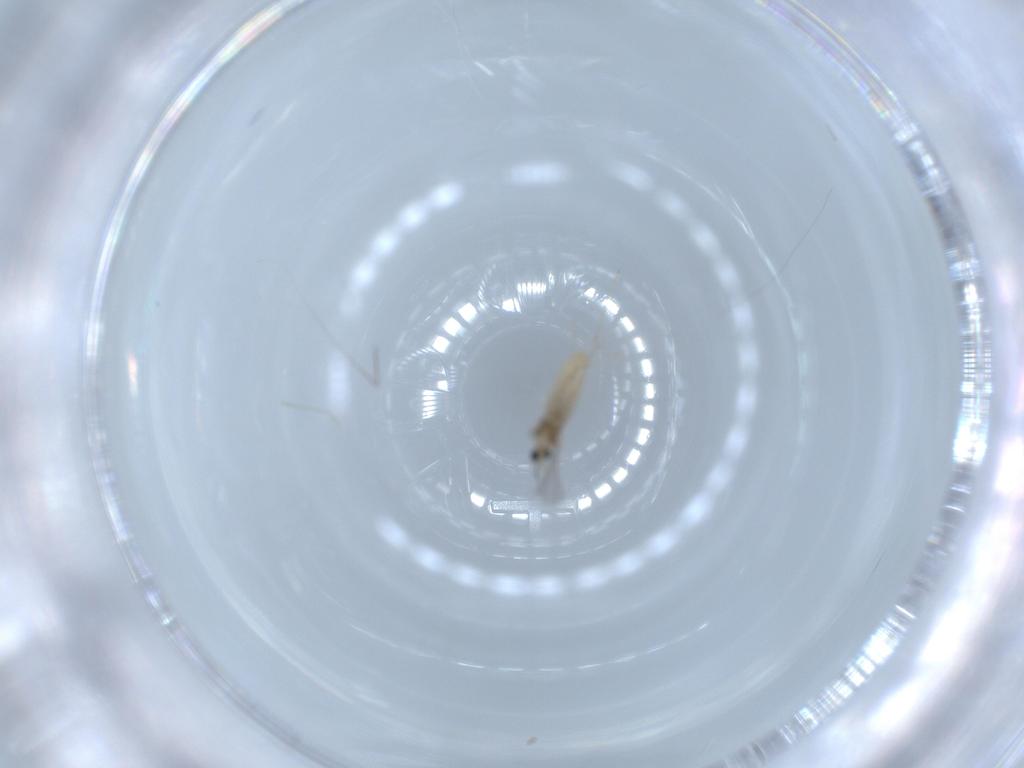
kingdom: Animalia
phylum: Arthropoda
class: Insecta
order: Diptera
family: Cecidomyiidae
